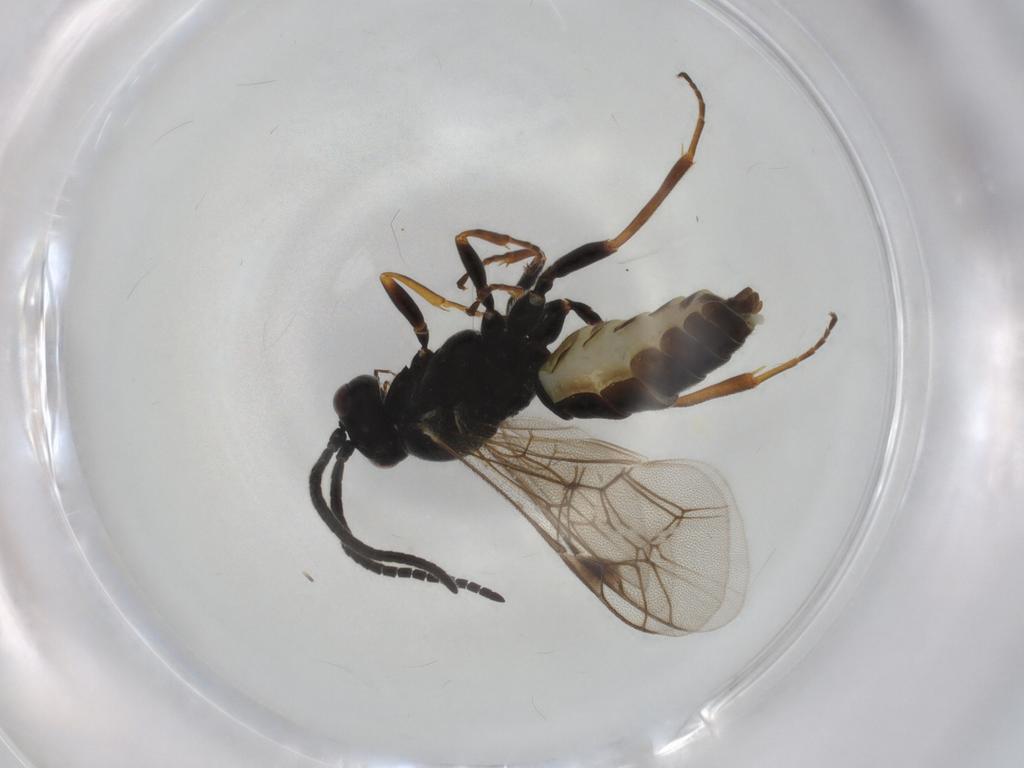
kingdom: Animalia
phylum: Arthropoda
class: Insecta
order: Hymenoptera
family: Ichneumonidae
